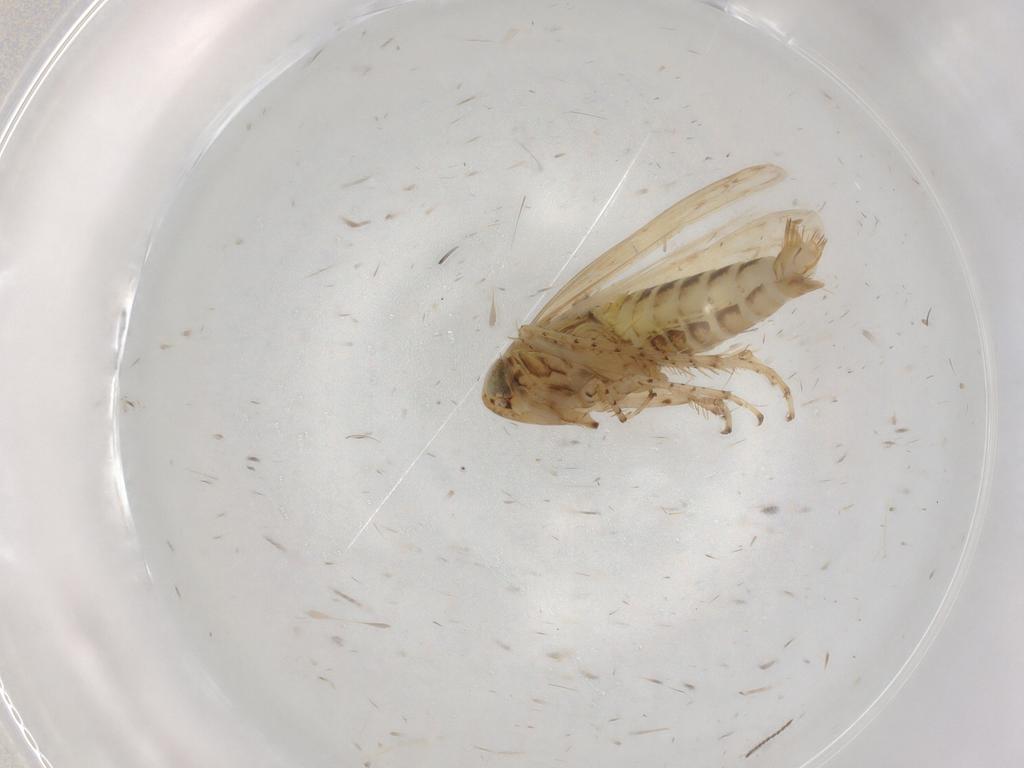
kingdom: Animalia
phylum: Arthropoda
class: Insecta
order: Hemiptera
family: Cicadellidae
